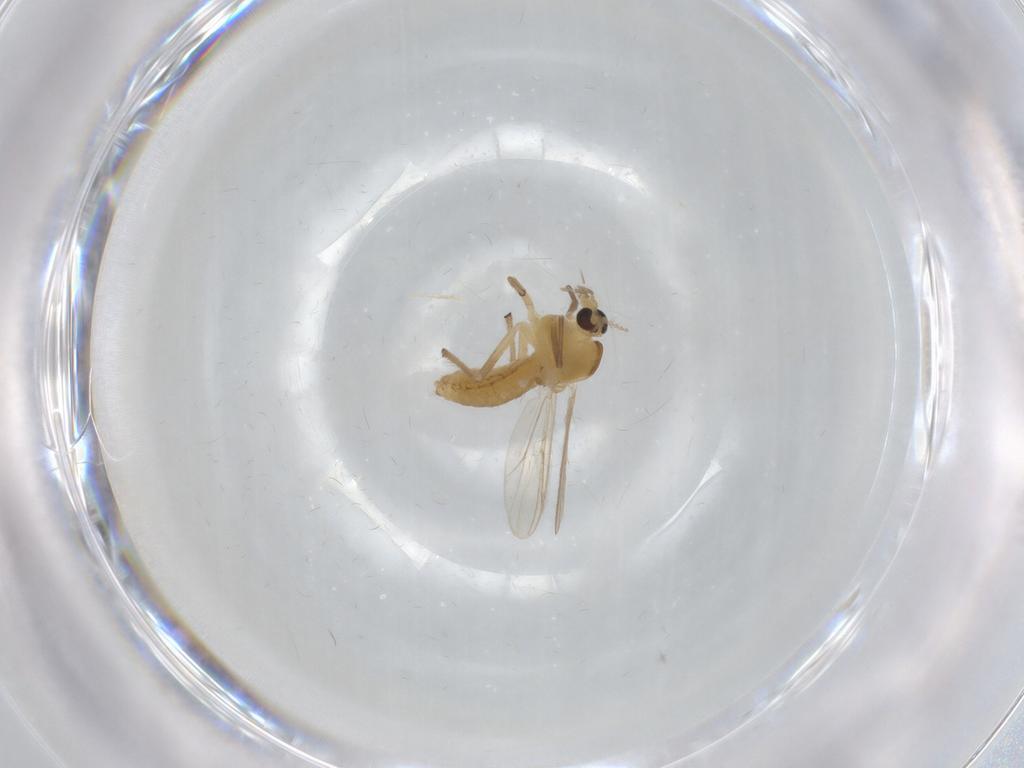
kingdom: Animalia
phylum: Arthropoda
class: Insecta
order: Diptera
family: Chironomidae
